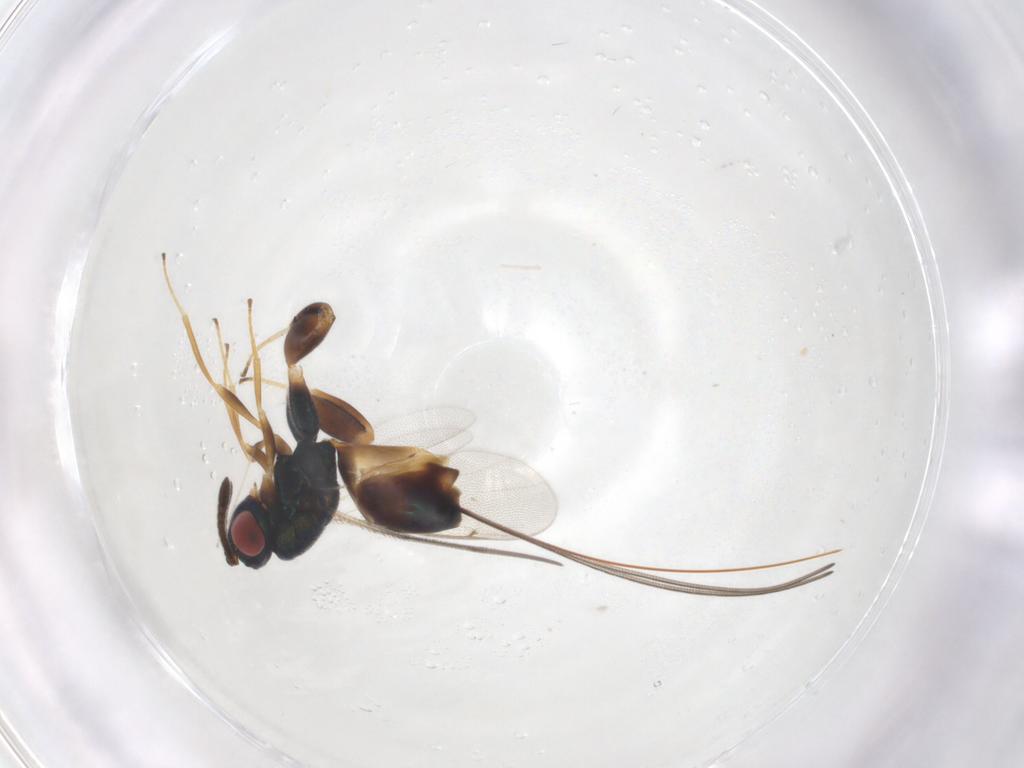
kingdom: Animalia
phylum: Arthropoda
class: Insecta
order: Hymenoptera
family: Torymidae
